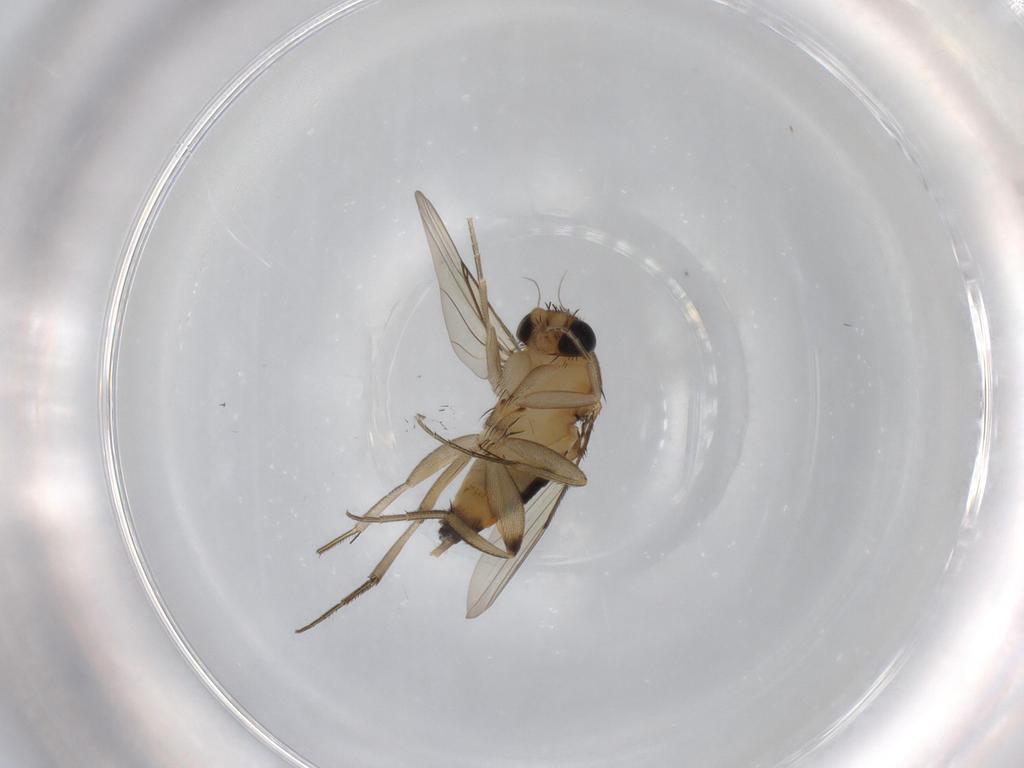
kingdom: Animalia
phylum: Arthropoda
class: Insecta
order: Diptera
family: Phoridae
